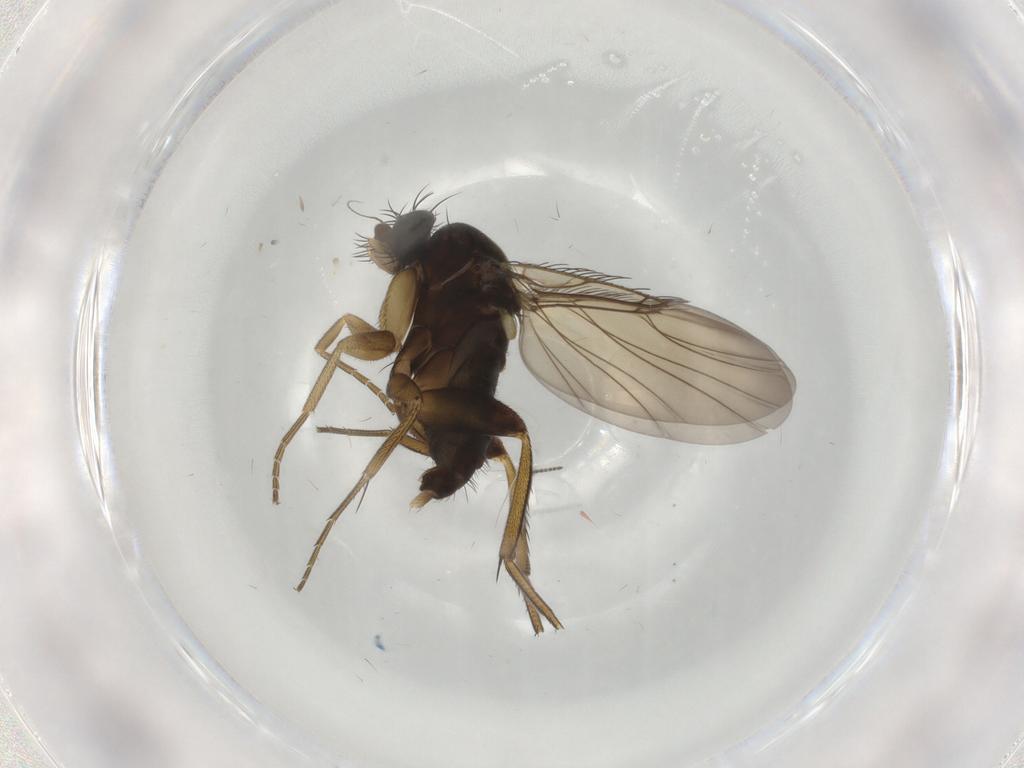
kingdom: Animalia
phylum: Arthropoda
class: Insecta
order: Diptera
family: Phoridae
